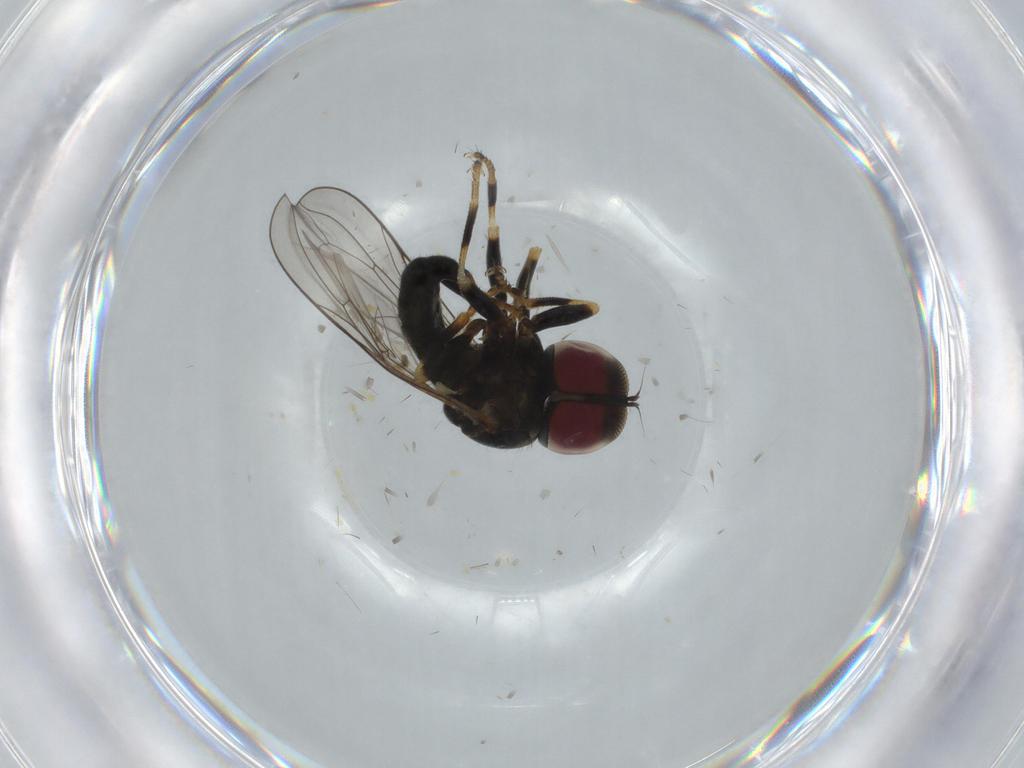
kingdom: Animalia
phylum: Arthropoda
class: Insecta
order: Diptera
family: Pipunculidae
